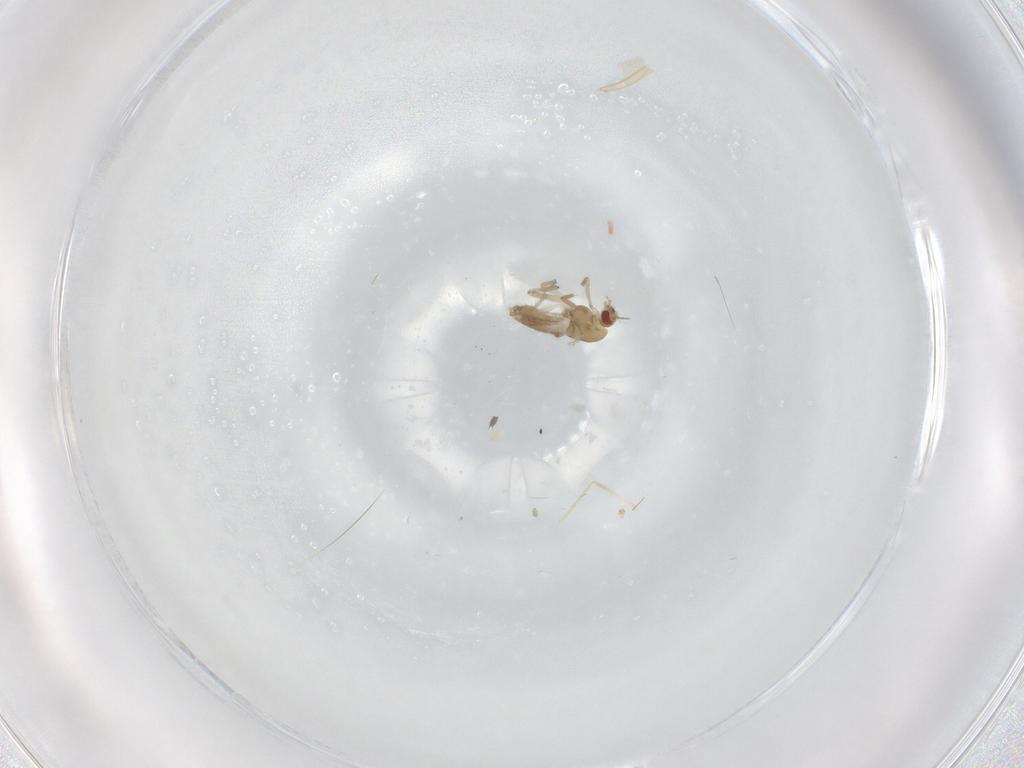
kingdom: Animalia
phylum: Arthropoda
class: Insecta
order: Diptera
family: Chironomidae
